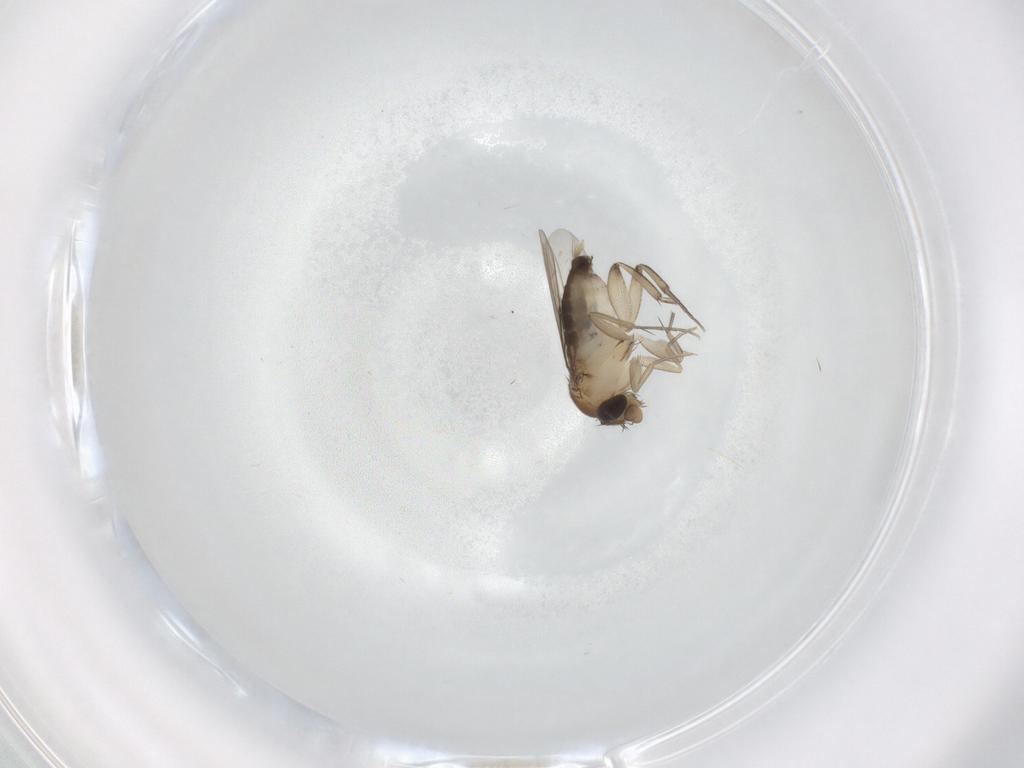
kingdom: Animalia
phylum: Arthropoda
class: Insecta
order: Diptera
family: Phoridae
